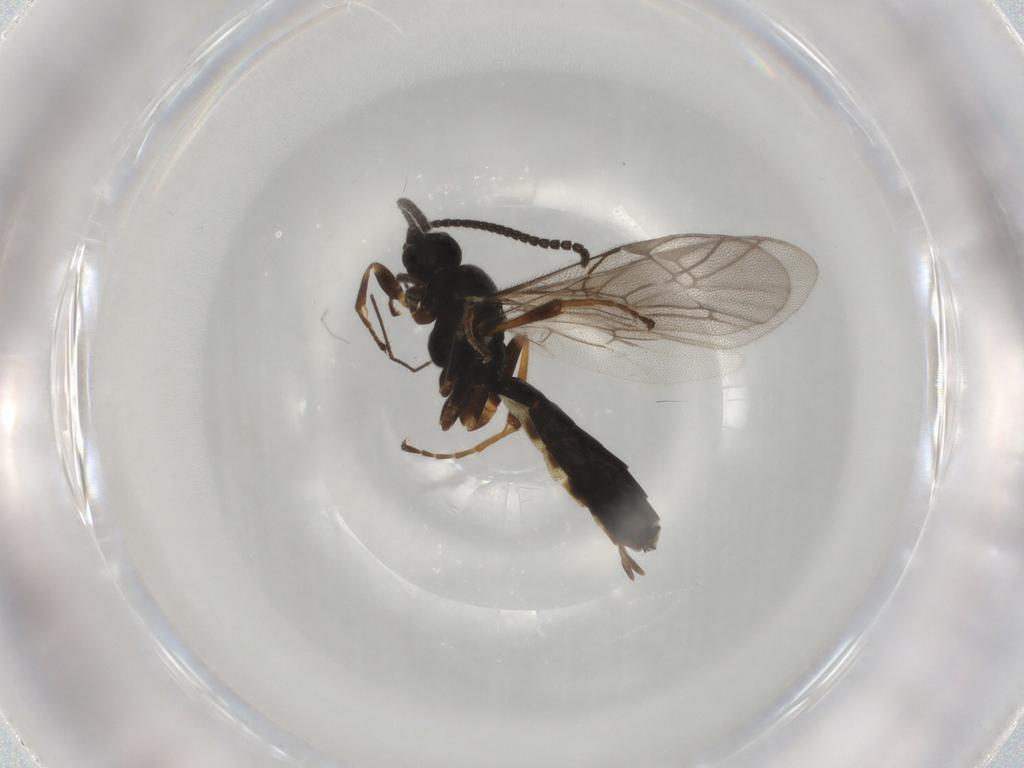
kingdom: Animalia
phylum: Arthropoda
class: Insecta
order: Hymenoptera
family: Ichneumonidae
